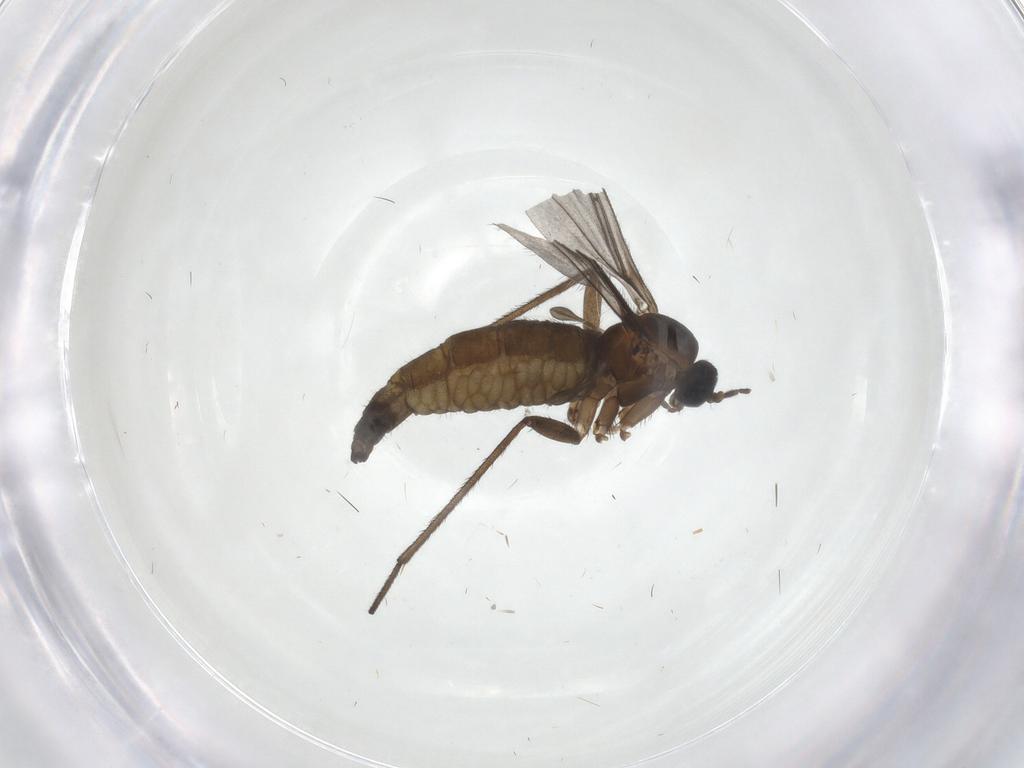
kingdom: Animalia
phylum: Arthropoda
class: Insecta
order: Diptera
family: Sciaridae
